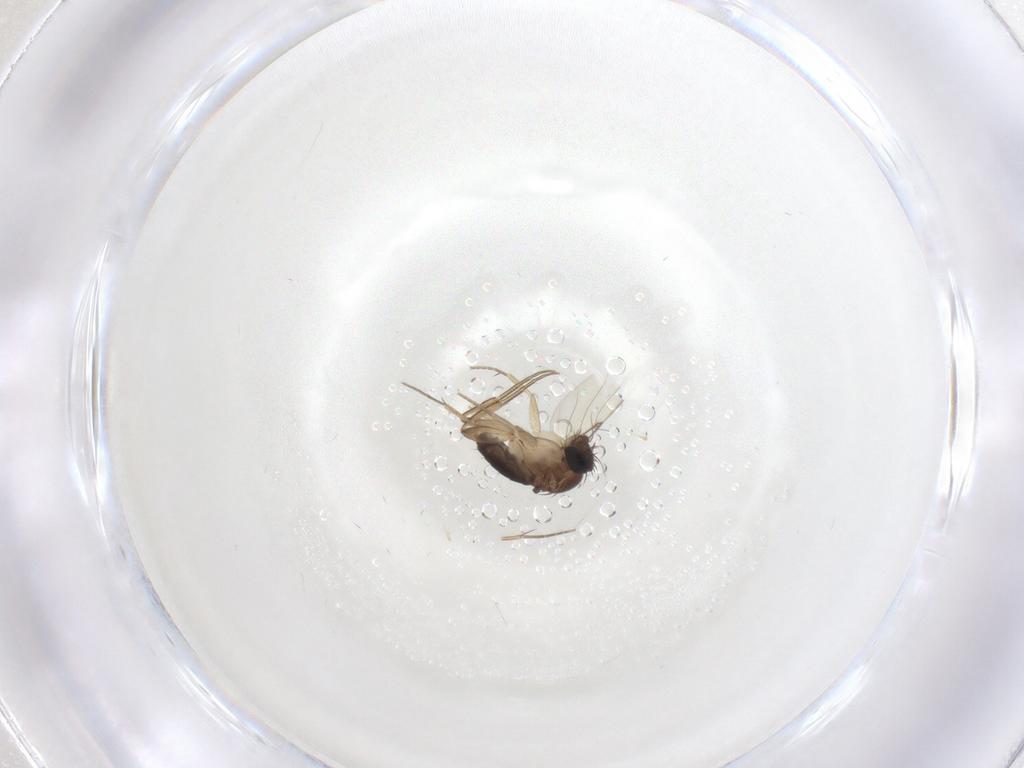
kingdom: Animalia
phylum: Arthropoda
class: Insecta
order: Diptera
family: Phoridae
